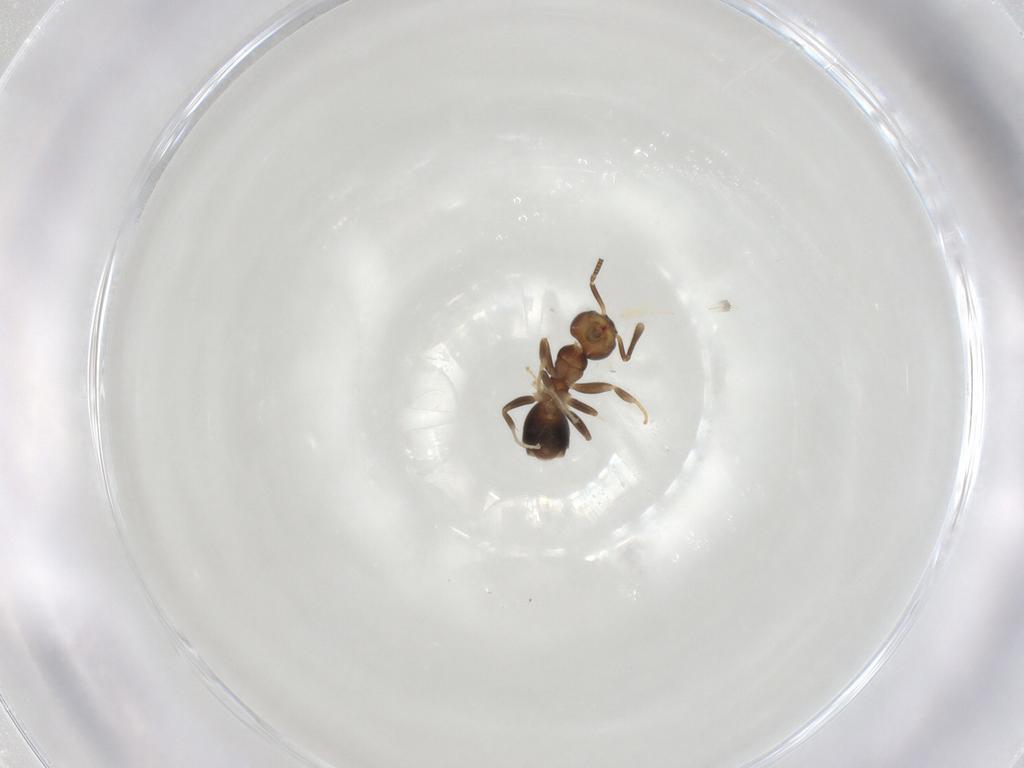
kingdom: Animalia
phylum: Arthropoda
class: Insecta
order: Hymenoptera
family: Formicidae
